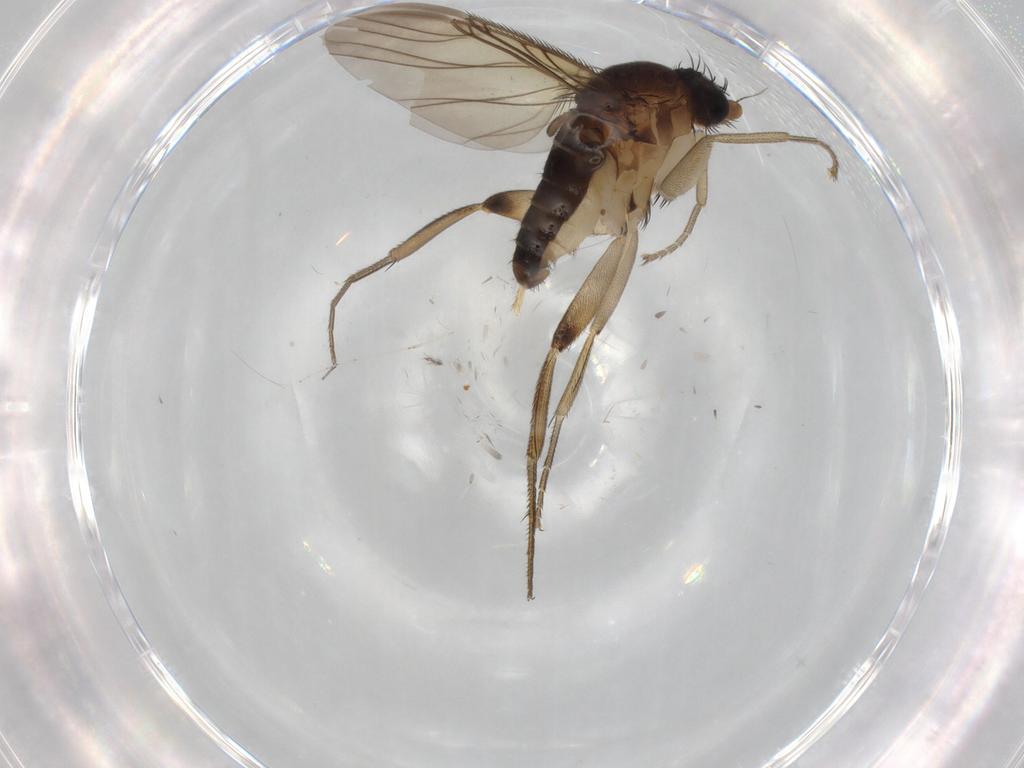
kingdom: Animalia
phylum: Arthropoda
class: Insecta
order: Diptera
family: Phoridae
